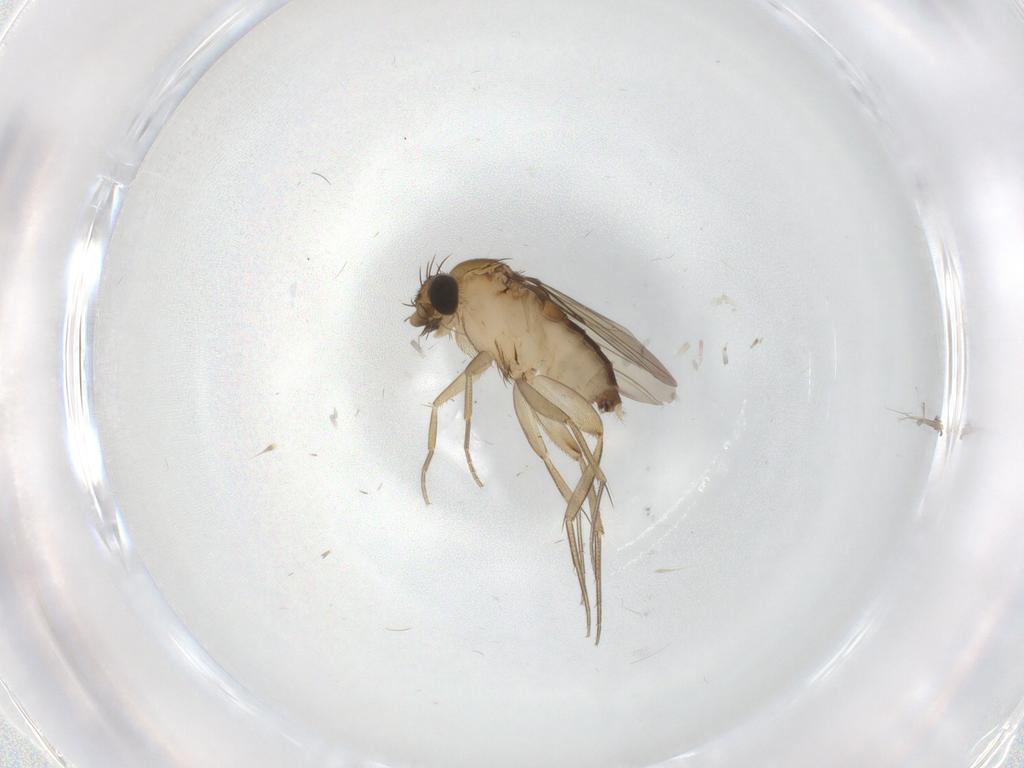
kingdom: Animalia
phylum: Arthropoda
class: Insecta
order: Diptera
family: Phoridae
